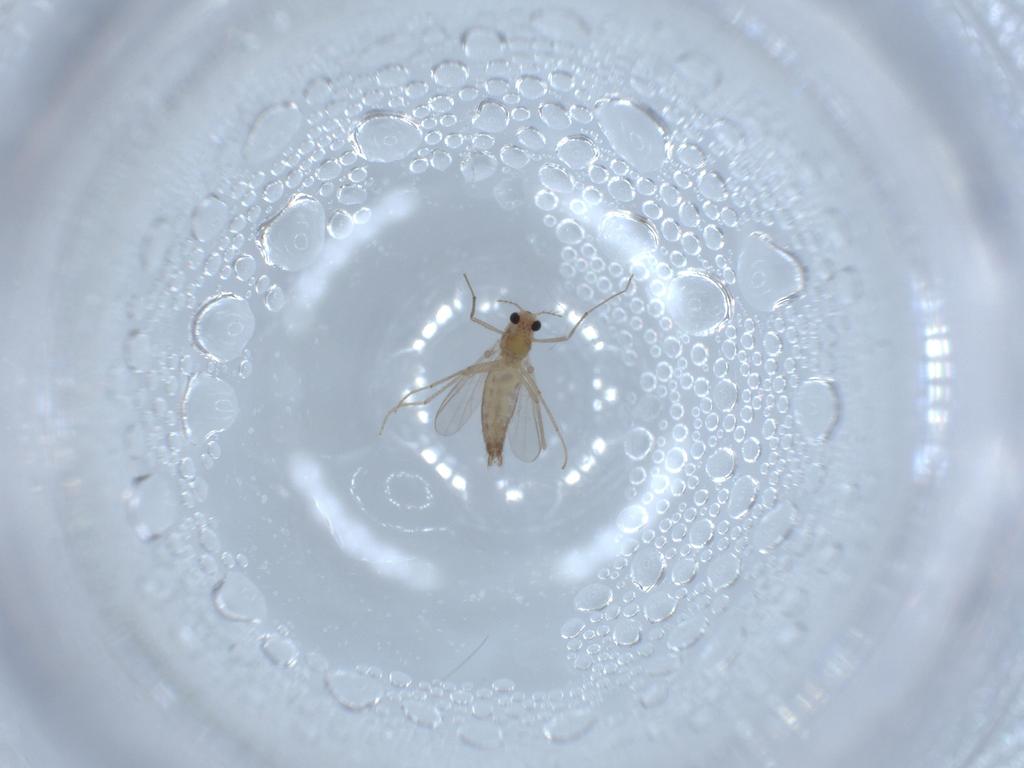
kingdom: Animalia
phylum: Arthropoda
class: Insecta
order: Diptera
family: Chironomidae
